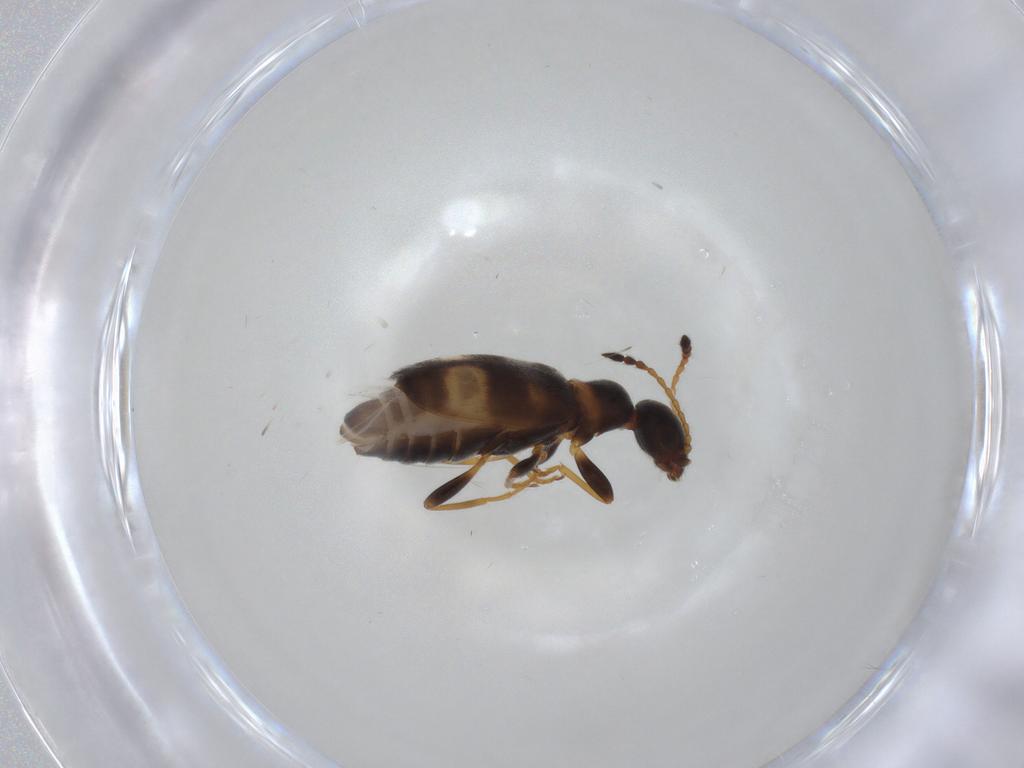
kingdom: Animalia
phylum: Arthropoda
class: Insecta
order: Coleoptera
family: Anthicidae
